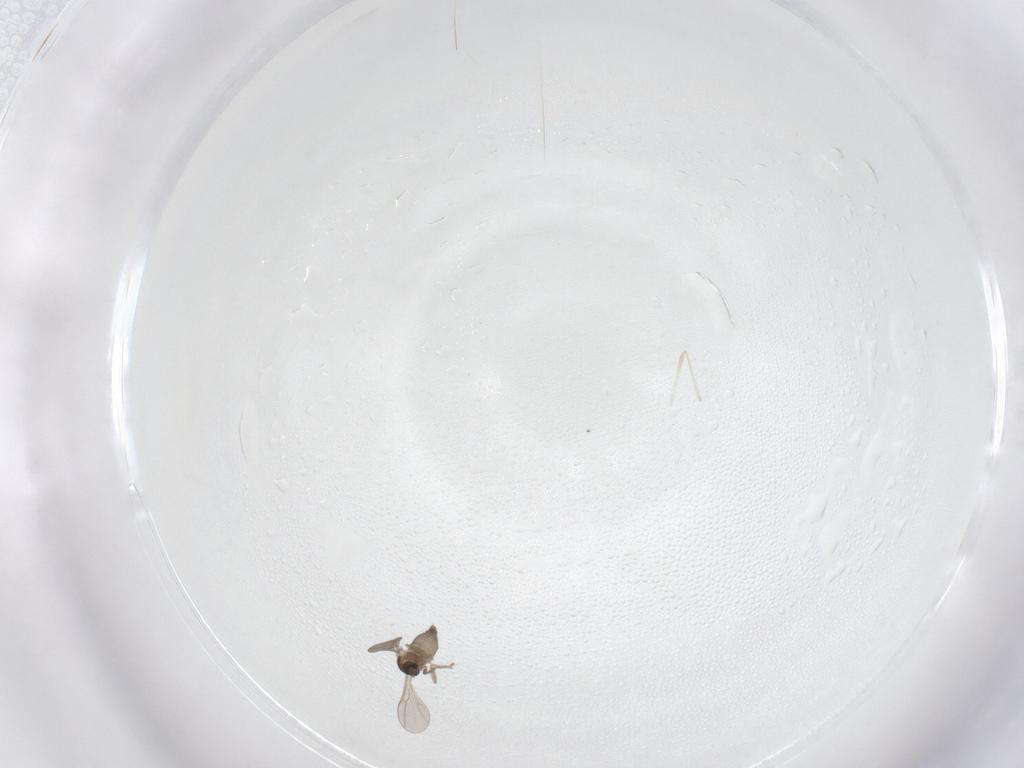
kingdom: Animalia
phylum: Arthropoda
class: Insecta
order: Diptera
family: Cecidomyiidae
